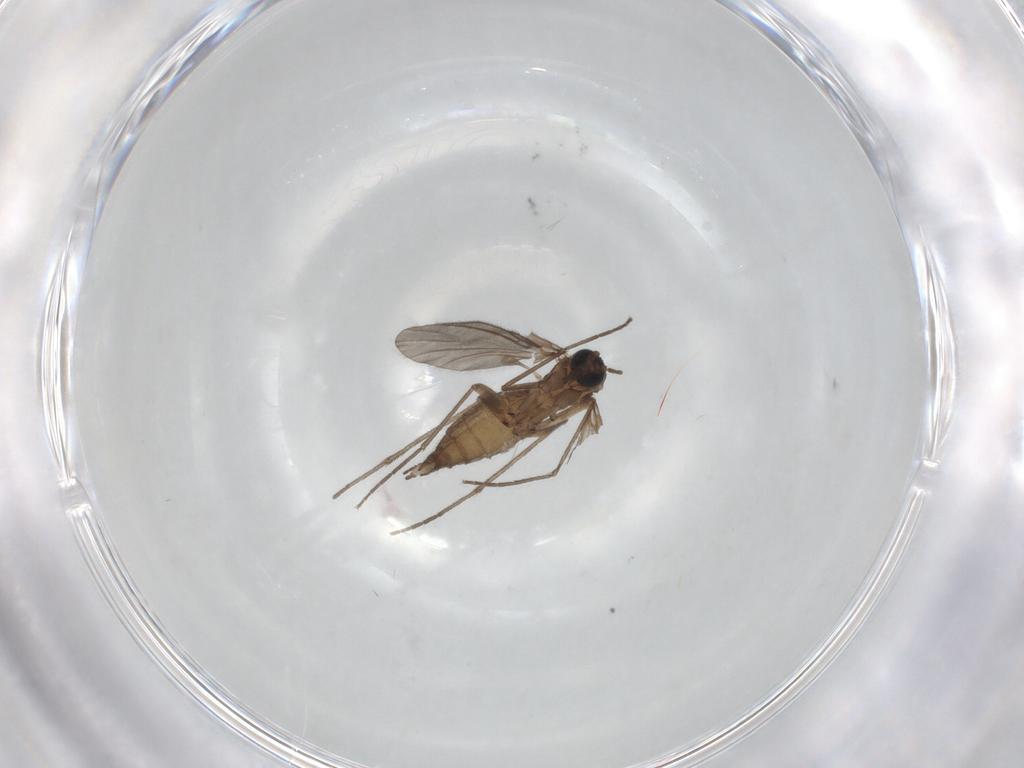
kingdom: Animalia
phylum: Arthropoda
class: Insecta
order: Diptera
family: Sciaridae
